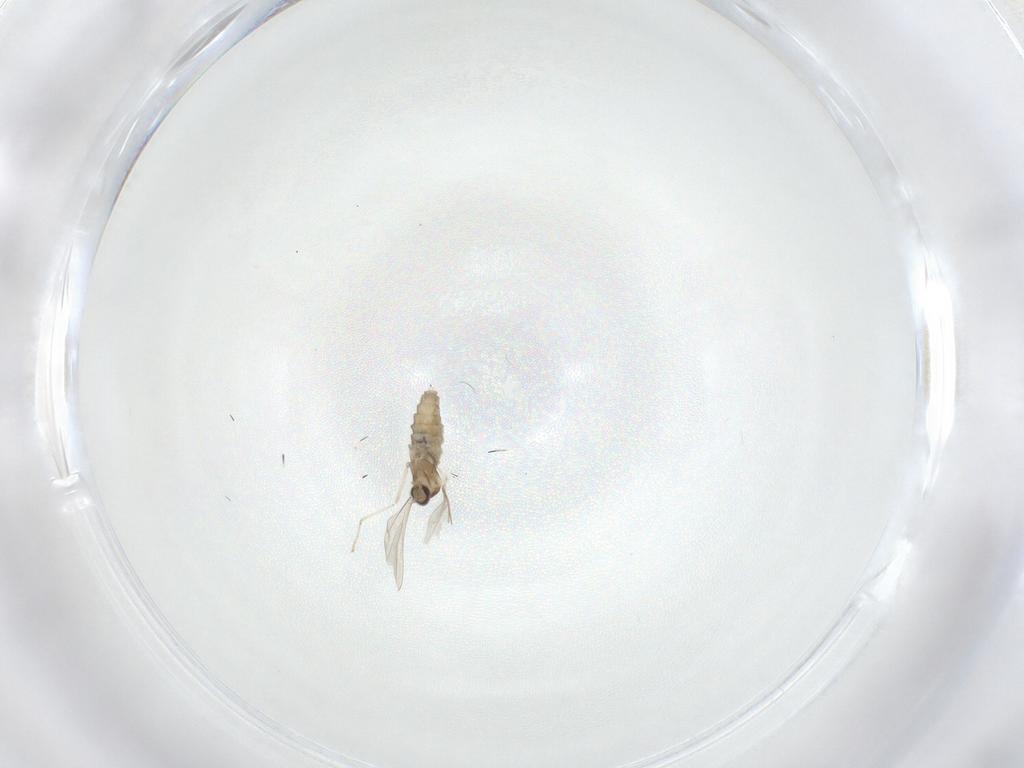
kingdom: Animalia
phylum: Arthropoda
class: Insecta
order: Diptera
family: Cecidomyiidae
